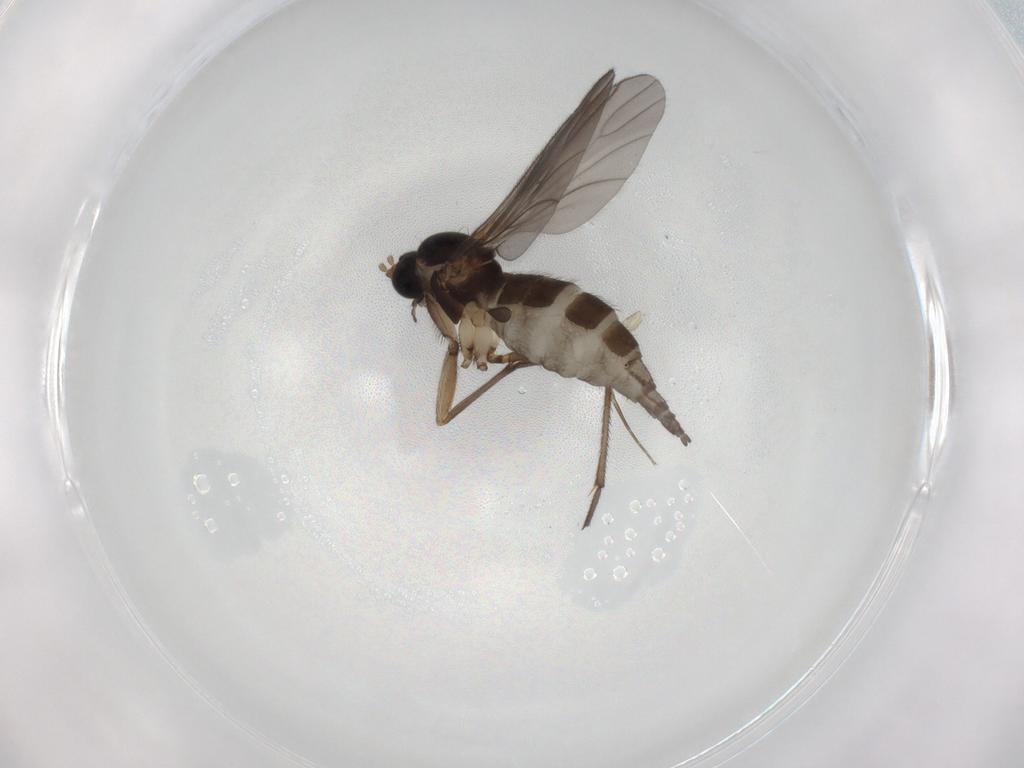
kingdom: Animalia
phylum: Arthropoda
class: Insecta
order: Diptera
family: Sciaridae
